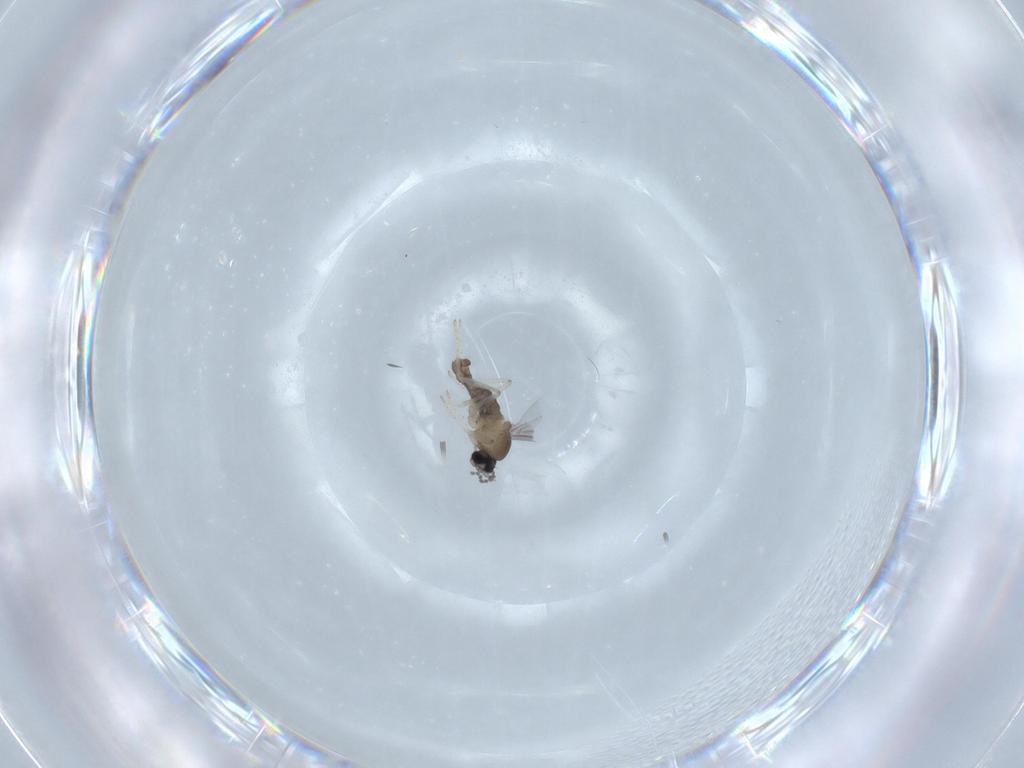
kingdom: Animalia
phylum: Arthropoda
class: Insecta
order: Diptera
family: Cecidomyiidae
